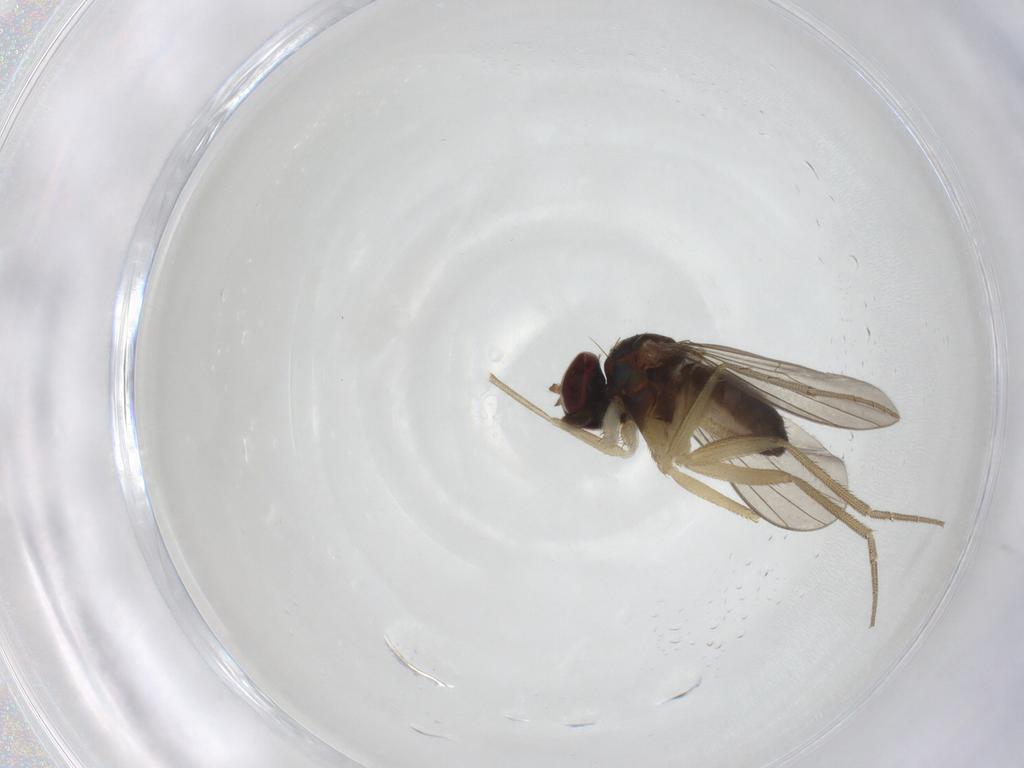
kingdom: Animalia
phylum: Arthropoda
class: Insecta
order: Diptera
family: Dolichopodidae
